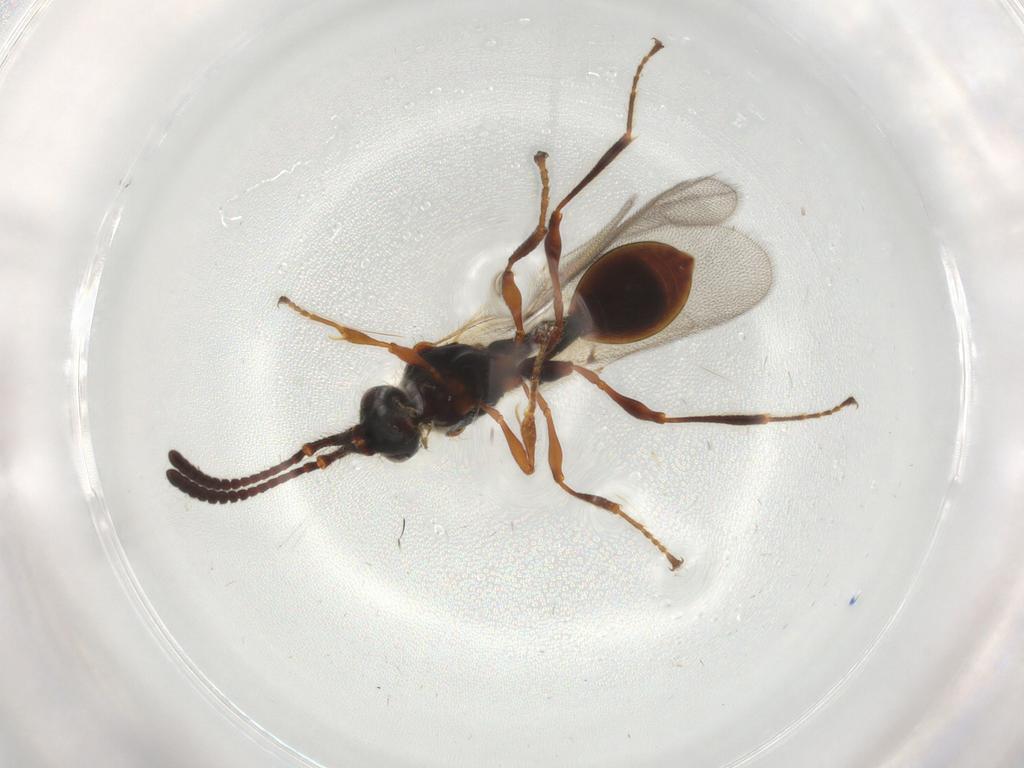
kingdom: Animalia
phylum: Arthropoda
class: Insecta
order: Hymenoptera
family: Diapriidae
